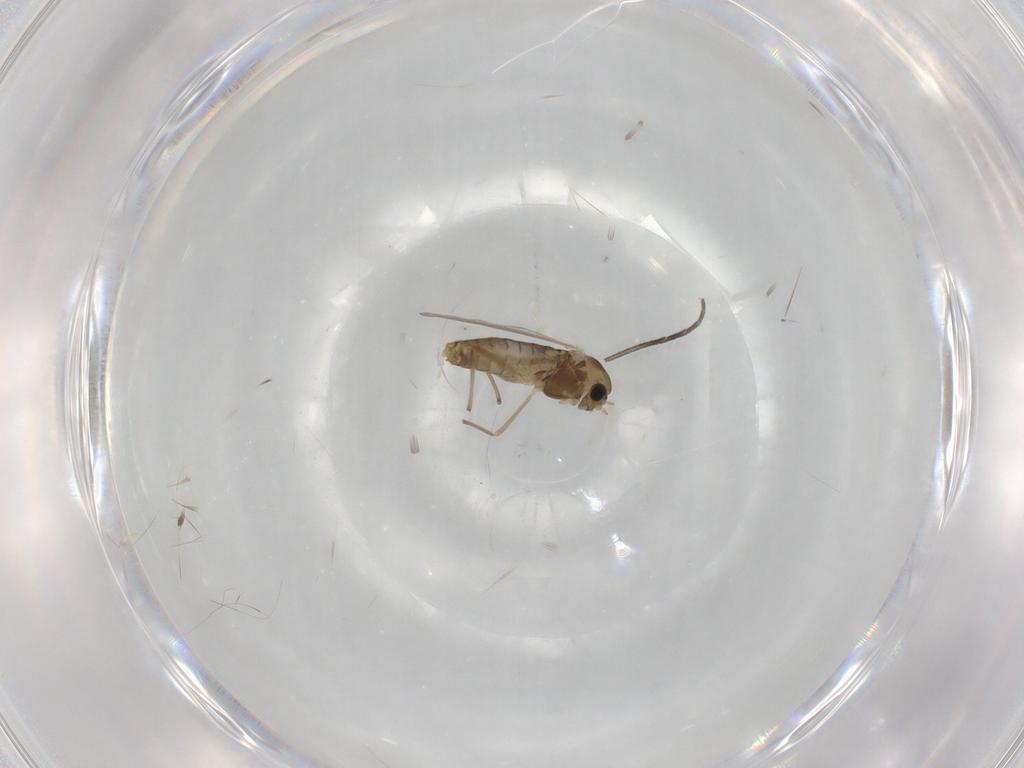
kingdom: Animalia
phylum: Arthropoda
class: Insecta
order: Diptera
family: Chironomidae
